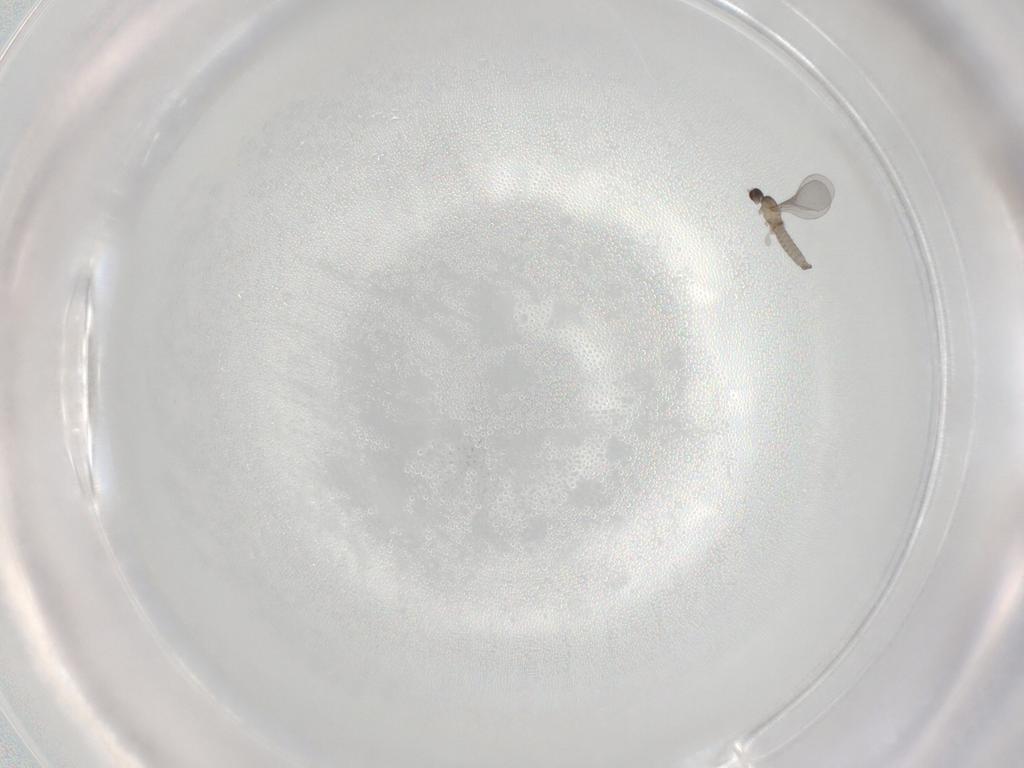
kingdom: Animalia
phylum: Arthropoda
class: Insecta
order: Diptera
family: Cecidomyiidae
